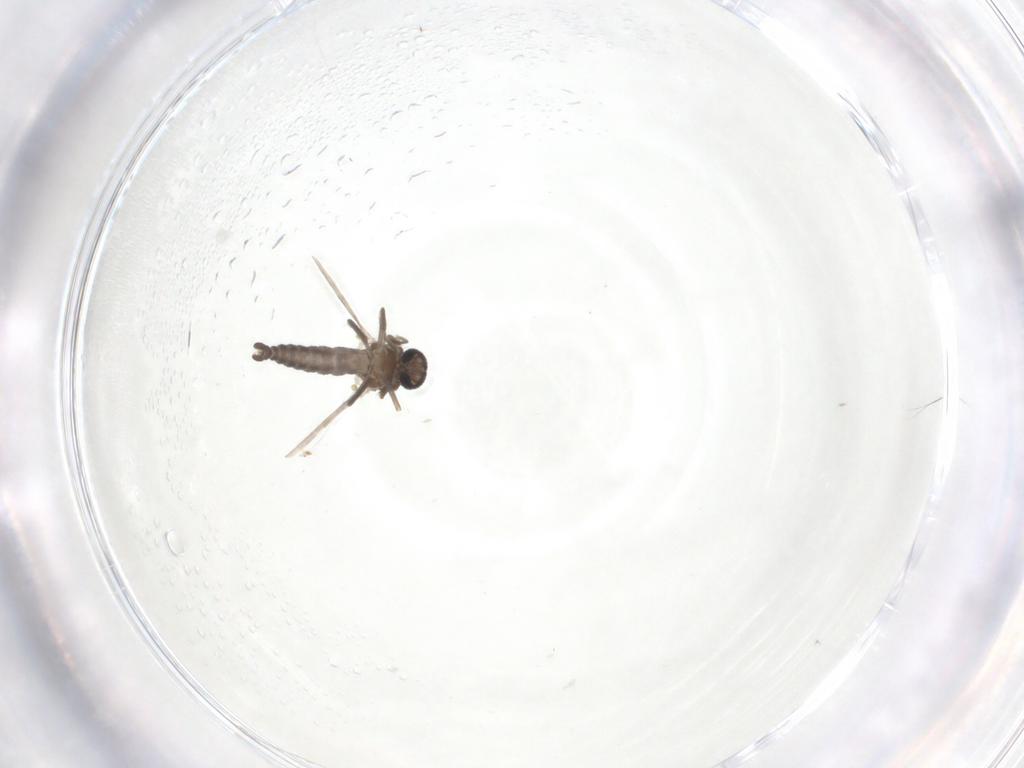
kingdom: Animalia
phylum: Arthropoda
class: Insecta
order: Diptera
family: Ceratopogonidae
